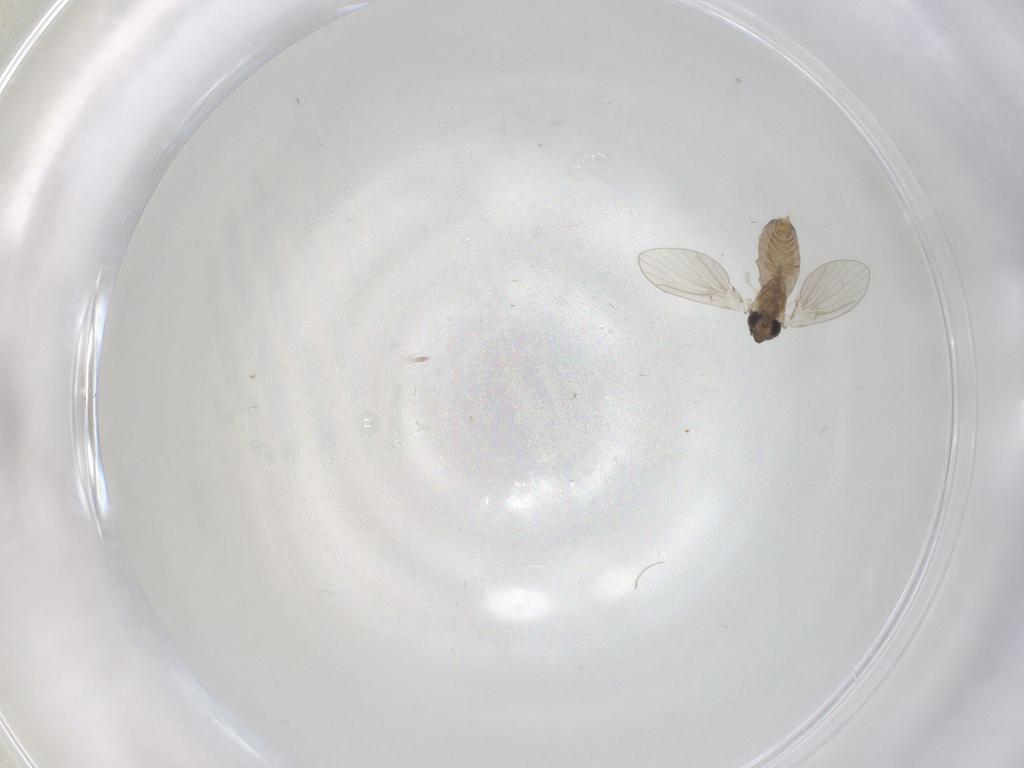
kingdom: Animalia
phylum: Arthropoda
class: Insecta
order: Diptera
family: Psychodidae
